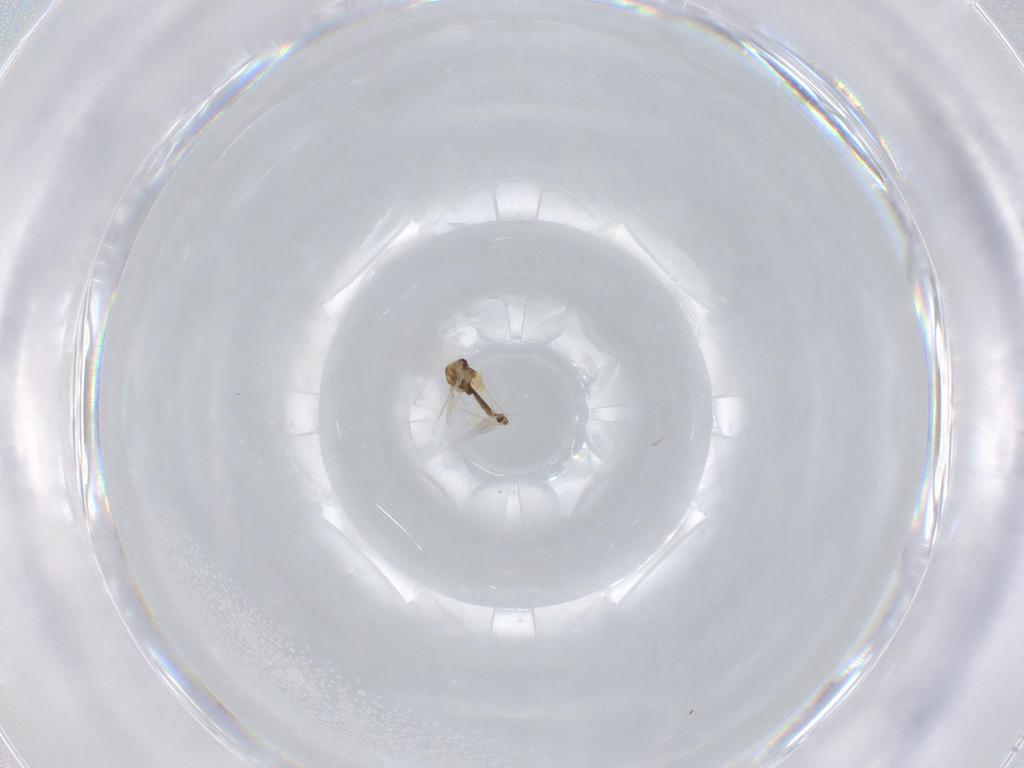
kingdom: Animalia
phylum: Arthropoda
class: Insecta
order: Diptera
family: Chironomidae
